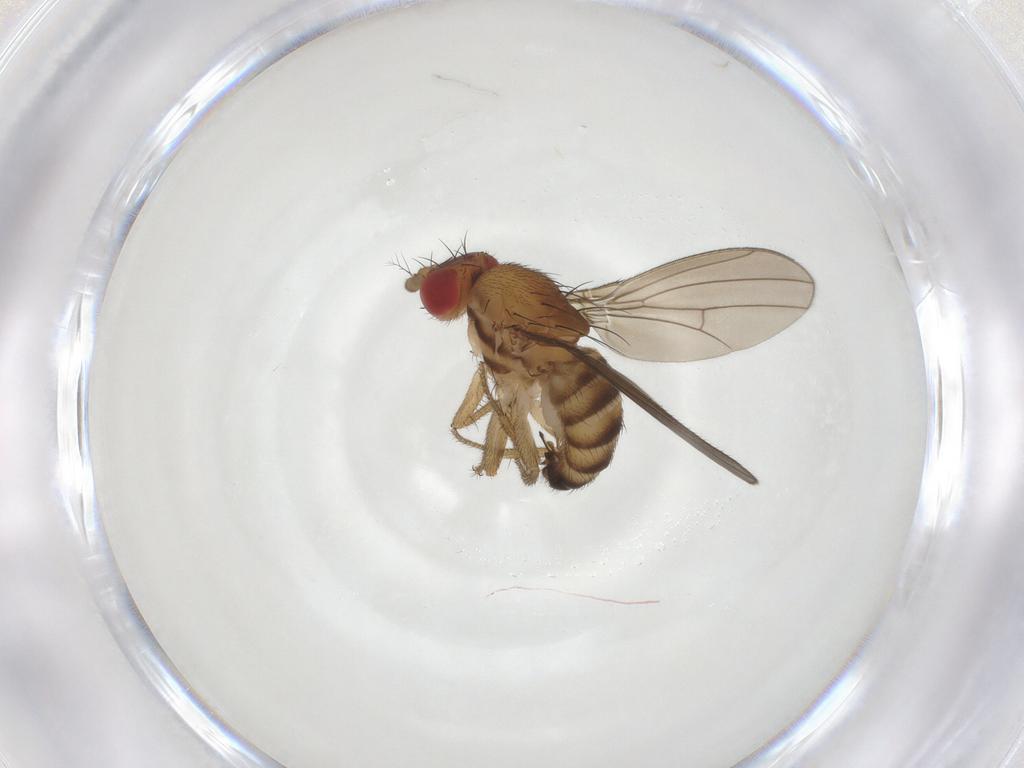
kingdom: Animalia
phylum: Arthropoda
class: Insecta
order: Diptera
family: Drosophilidae
